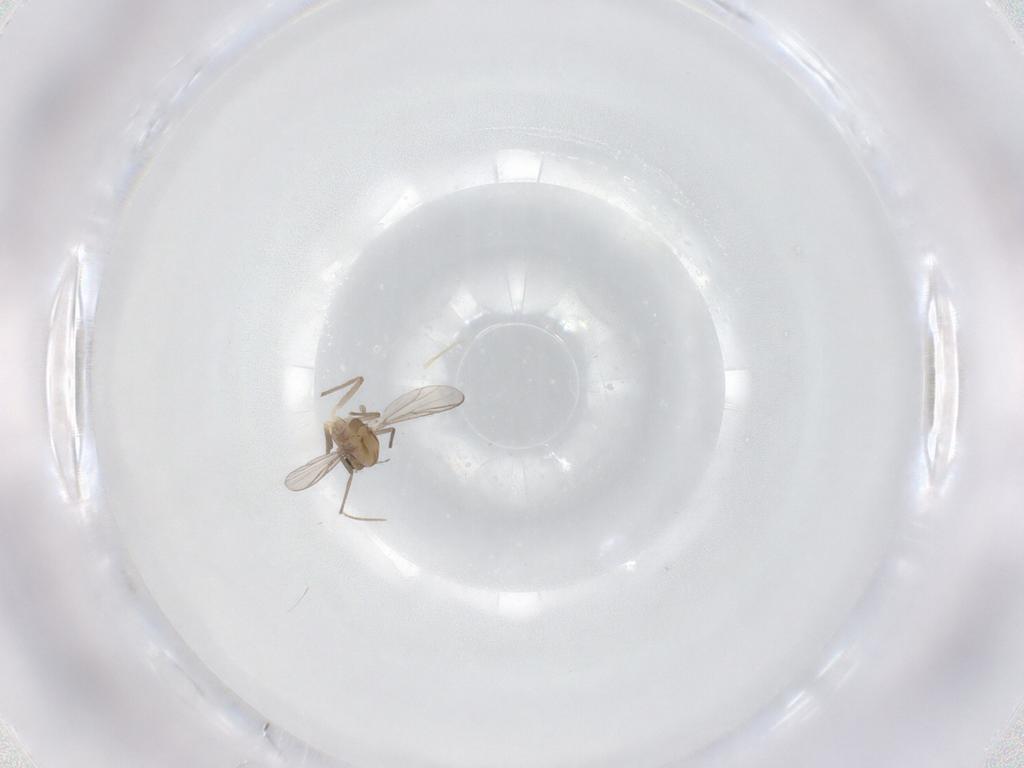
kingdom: Animalia
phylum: Arthropoda
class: Insecta
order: Diptera
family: Chironomidae
